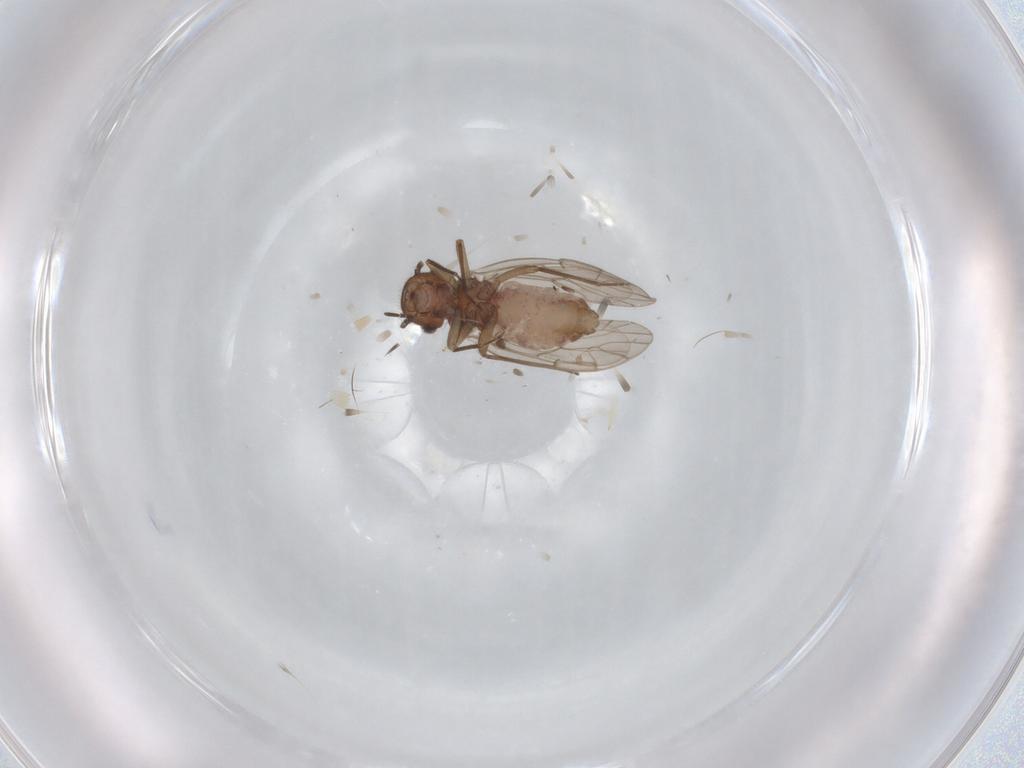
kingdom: Animalia
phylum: Arthropoda
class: Insecta
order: Psocodea
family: Ectopsocidae
